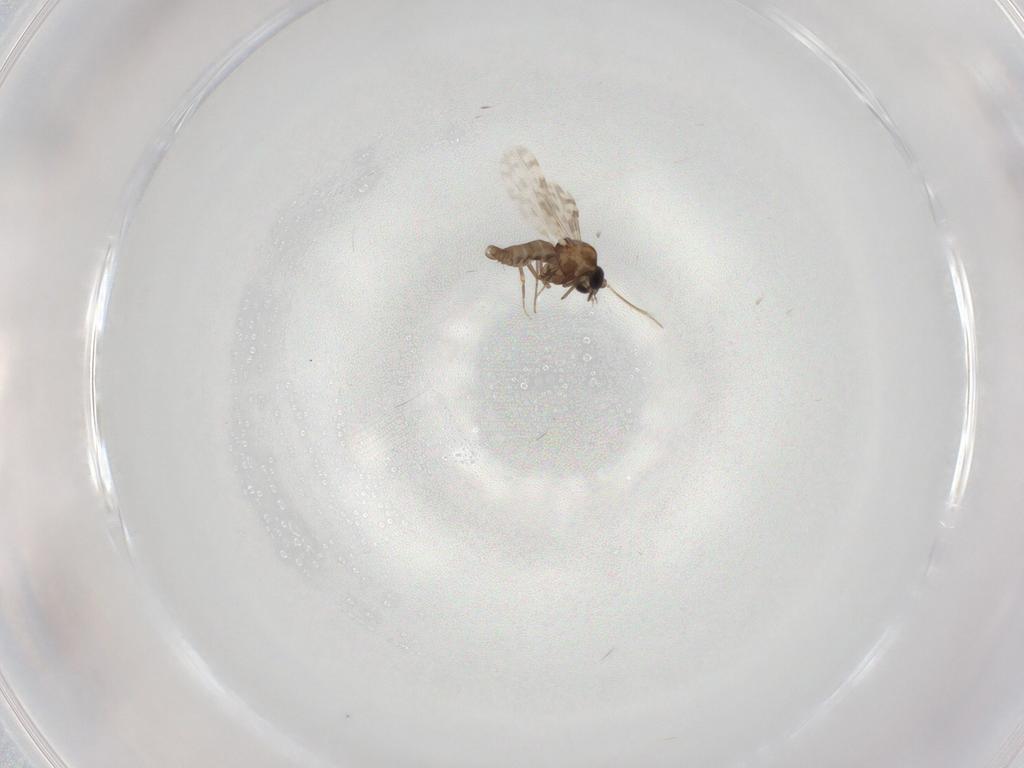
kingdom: Animalia
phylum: Arthropoda
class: Insecta
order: Diptera
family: Ceratopogonidae
